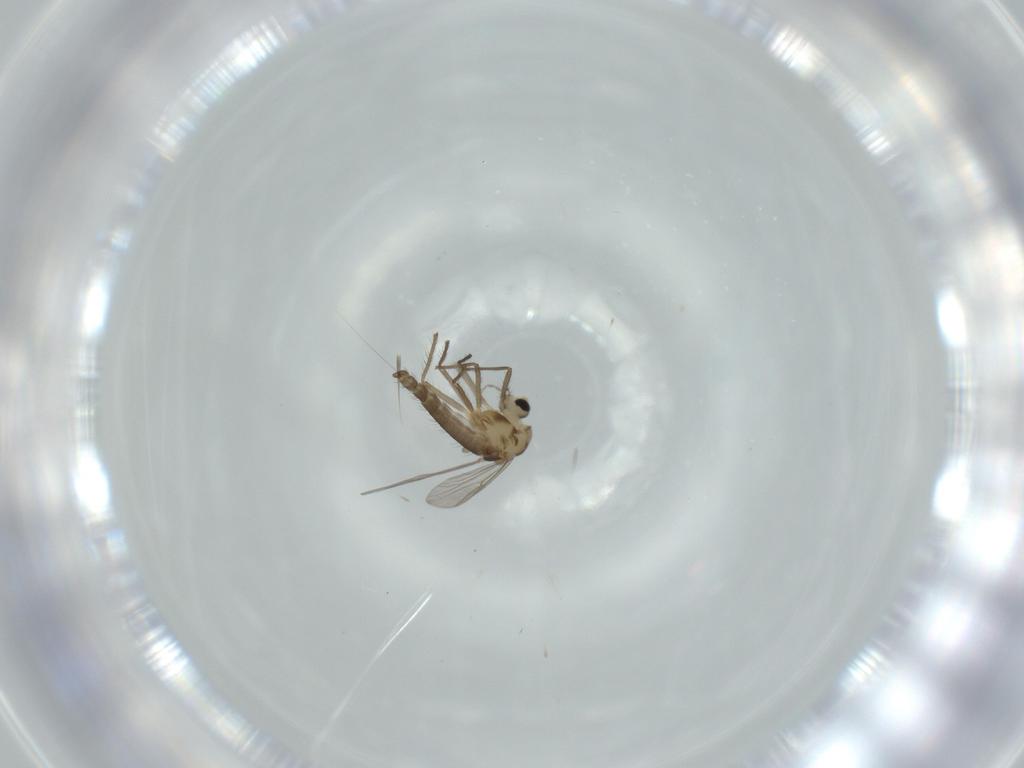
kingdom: Animalia
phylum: Arthropoda
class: Insecta
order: Diptera
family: Chironomidae
